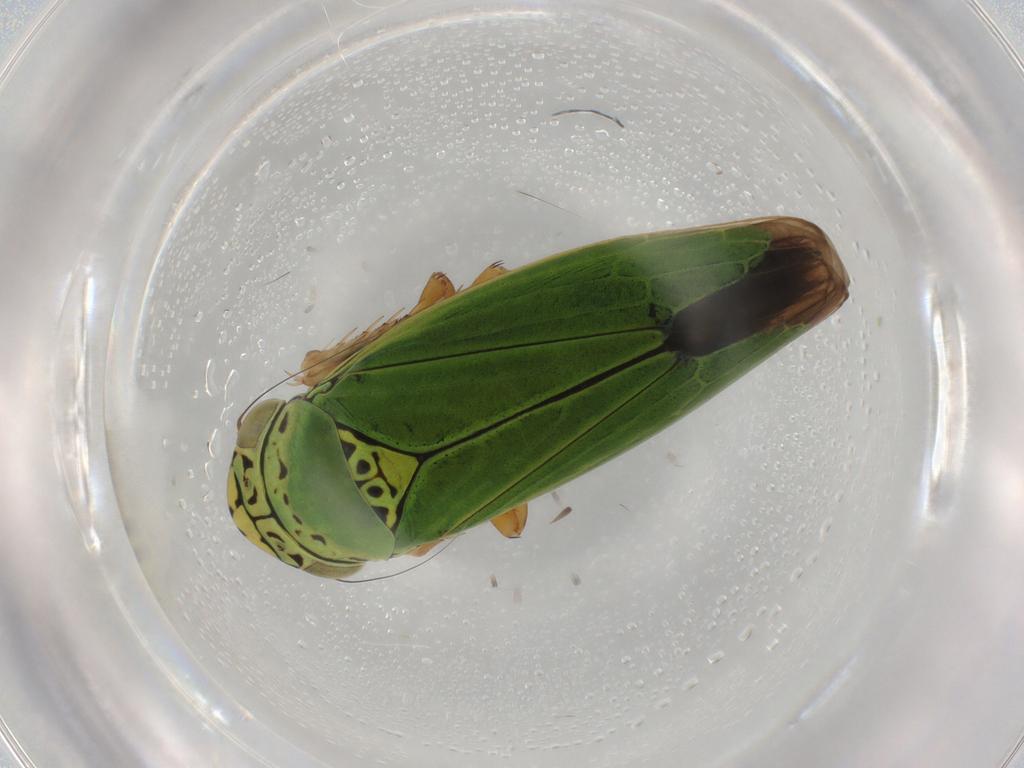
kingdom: Animalia
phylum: Arthropoda
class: Insecta
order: Hemiptera
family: Cicadellidae
